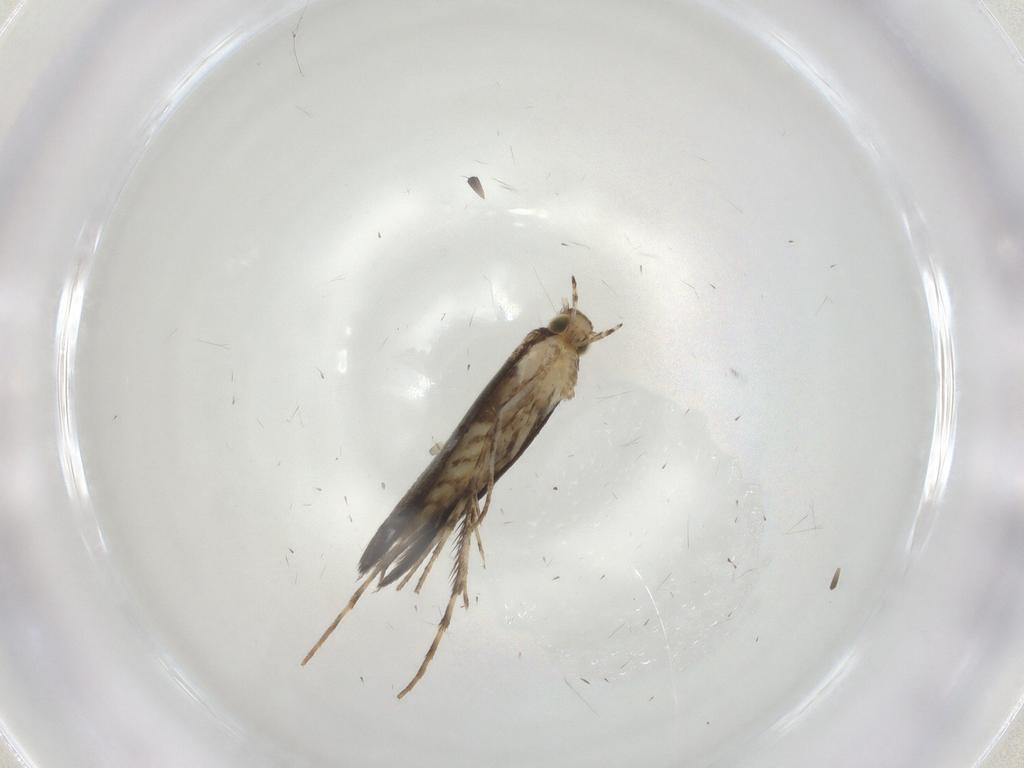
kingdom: Animalia
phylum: Arthropoda
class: Insecta
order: Lepidoptera
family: Gracillariidae
